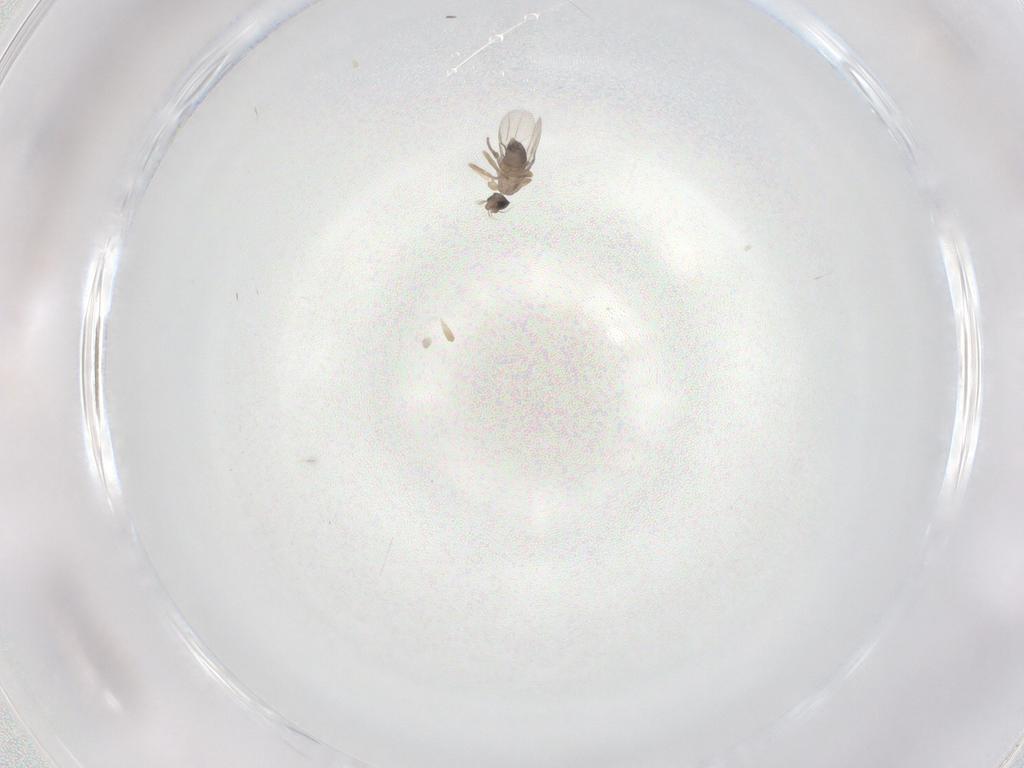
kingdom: Animalia
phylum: Arthropoda
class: Insecta
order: Diptera
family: Phoridae
